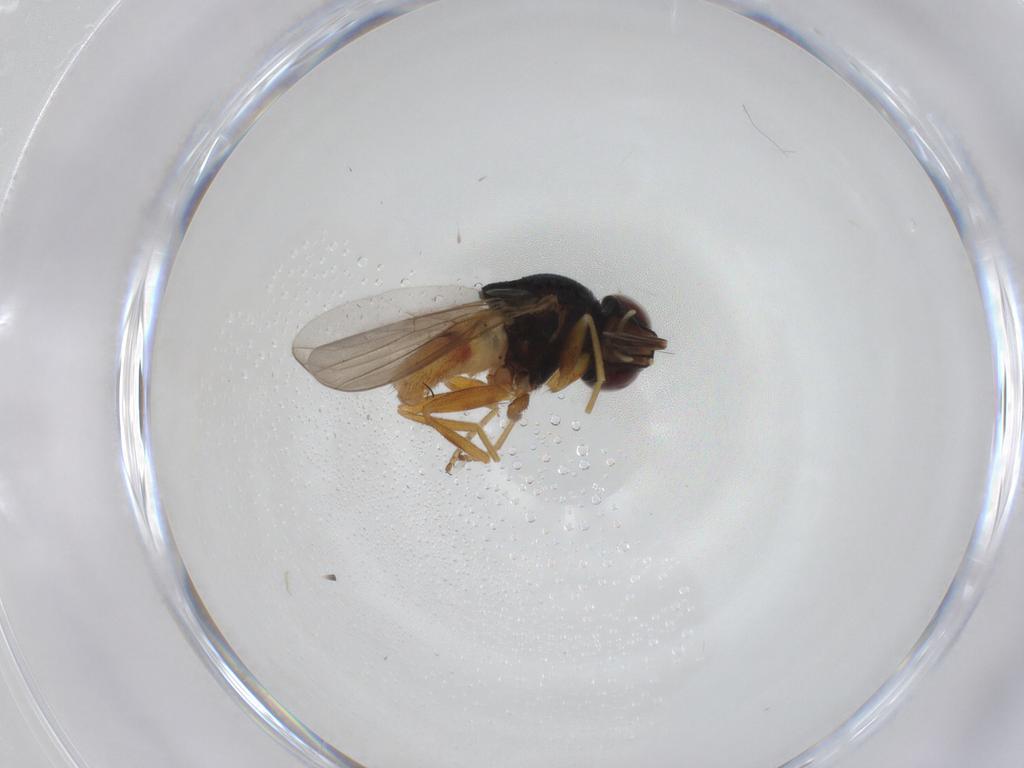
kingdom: Animalia
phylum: Arthropoda
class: Insecta
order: Diptera
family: Chloropidae
